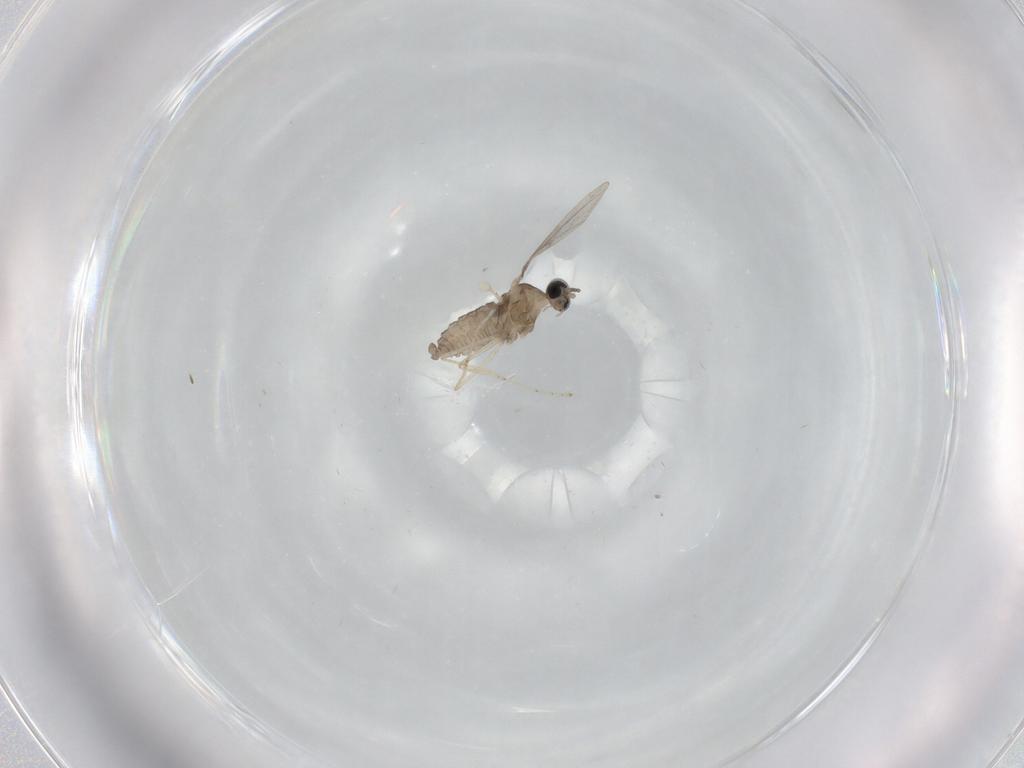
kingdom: Animalia
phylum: Arthropoda
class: Insecta
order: Diptera
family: Cecidomyiidae
